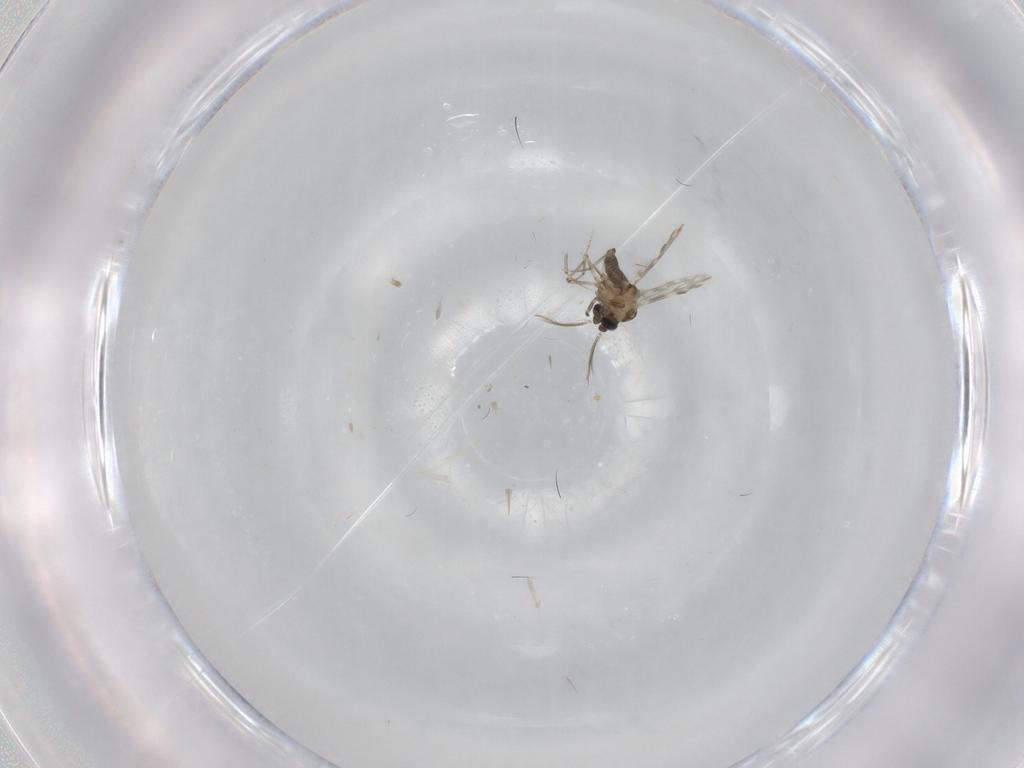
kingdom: Animalia
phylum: Arthropoda
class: Insecta
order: Diptera
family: Ceratopogonidae
